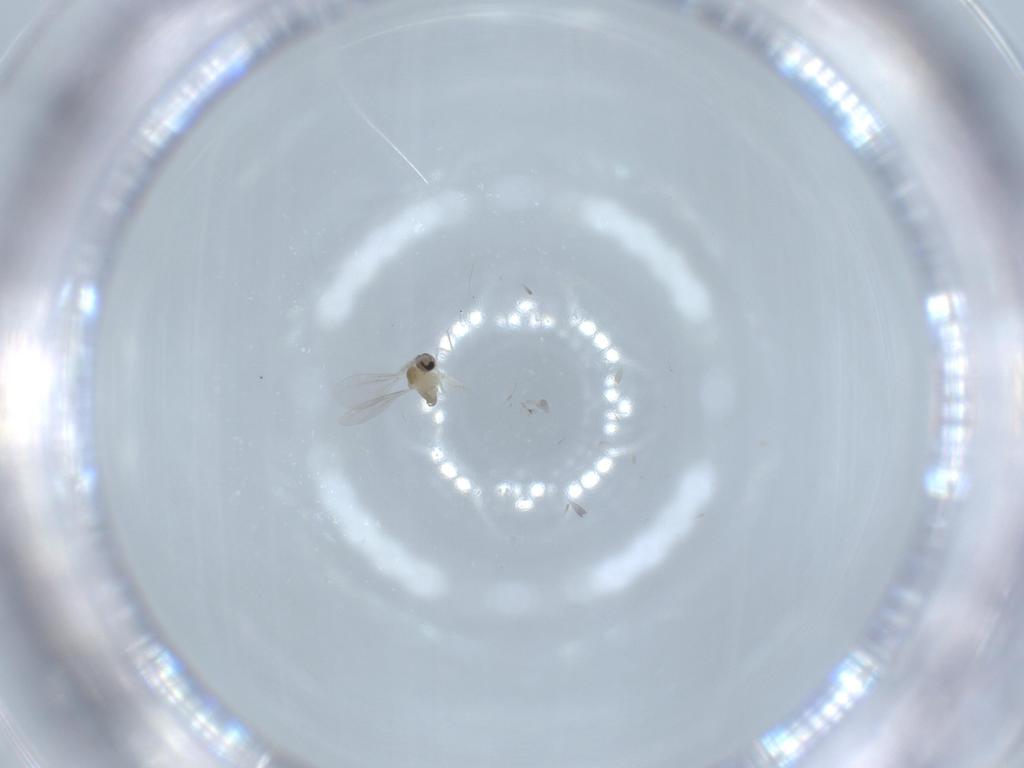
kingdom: Animalia
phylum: Arthropoda
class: Insecta
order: Diptera
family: Cecidomyiidae
